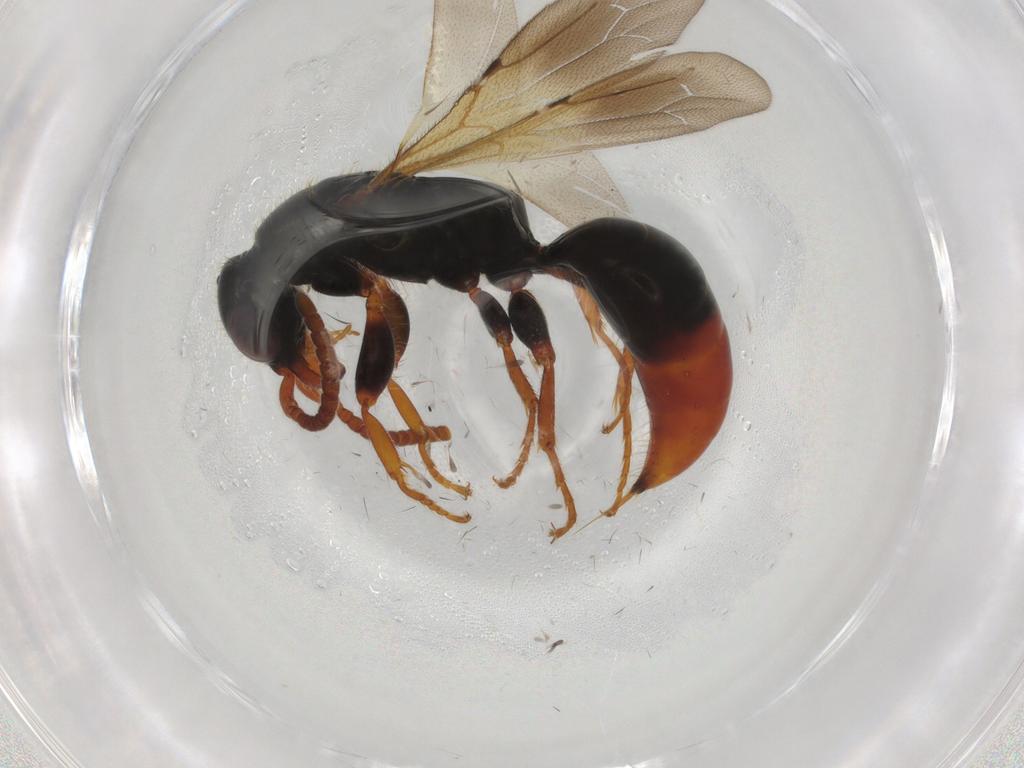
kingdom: Animalia
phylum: Arthropoda
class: Insecta
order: Hymenoptera
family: Bethylidae
